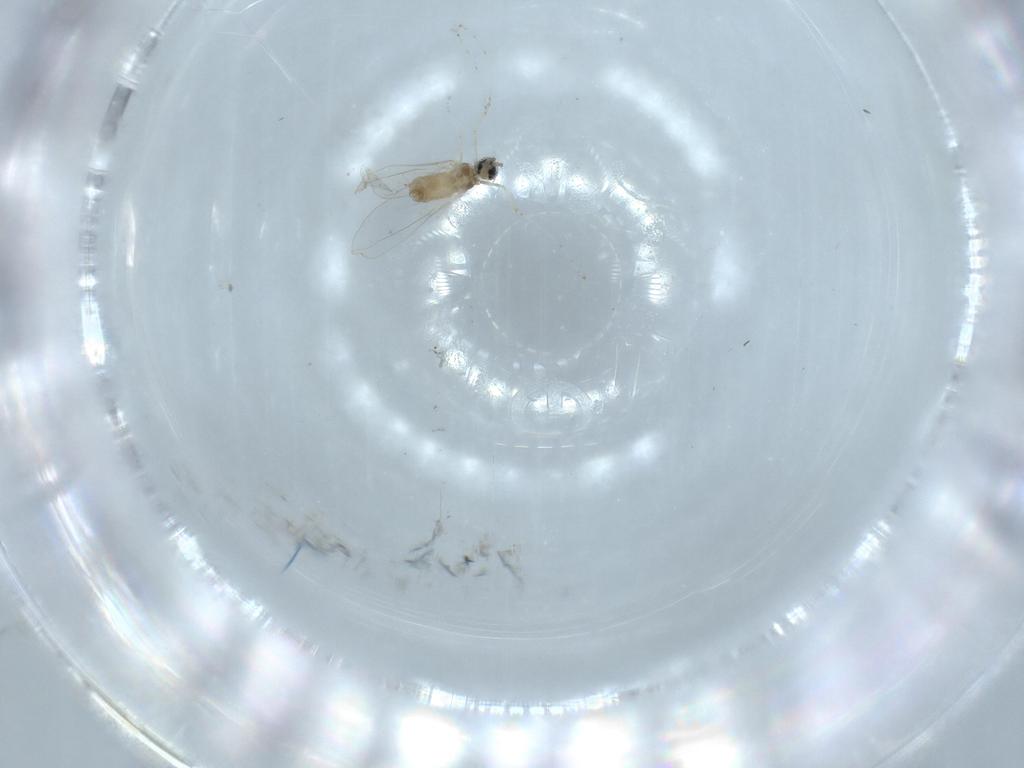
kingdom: Animalia
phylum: Arthropoda
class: Insecta
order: Diptera
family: Cecidomyiidae
